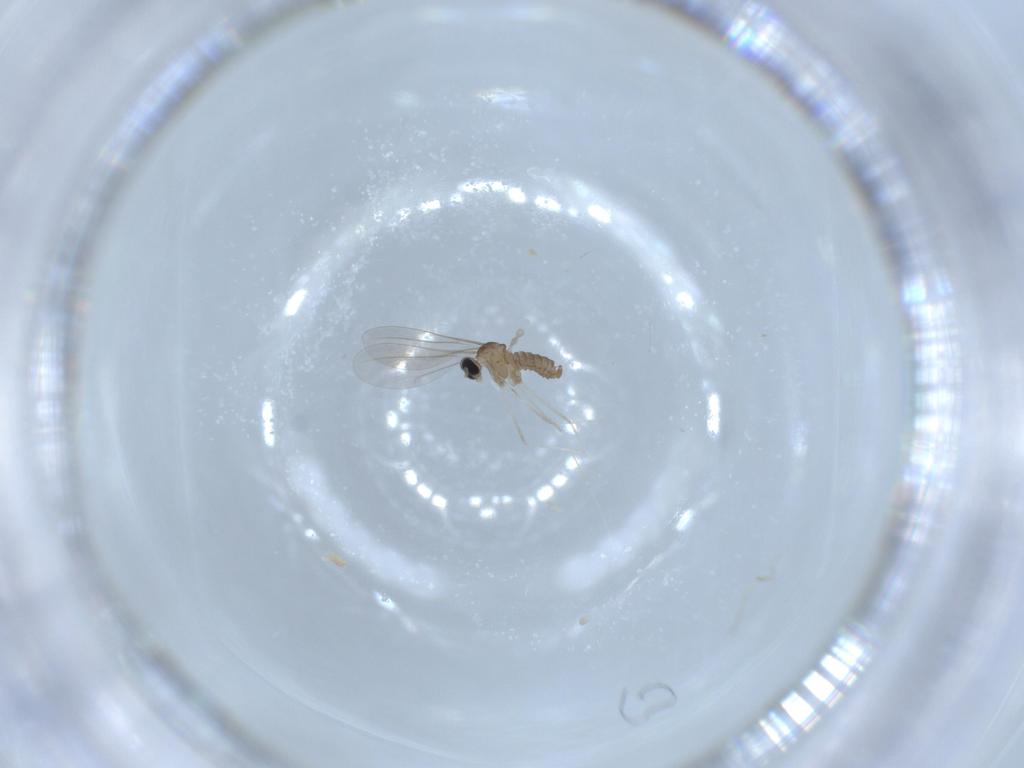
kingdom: Animalia
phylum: Arthropoda
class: Insecta
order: Diptera
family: Cecidomyiidae
